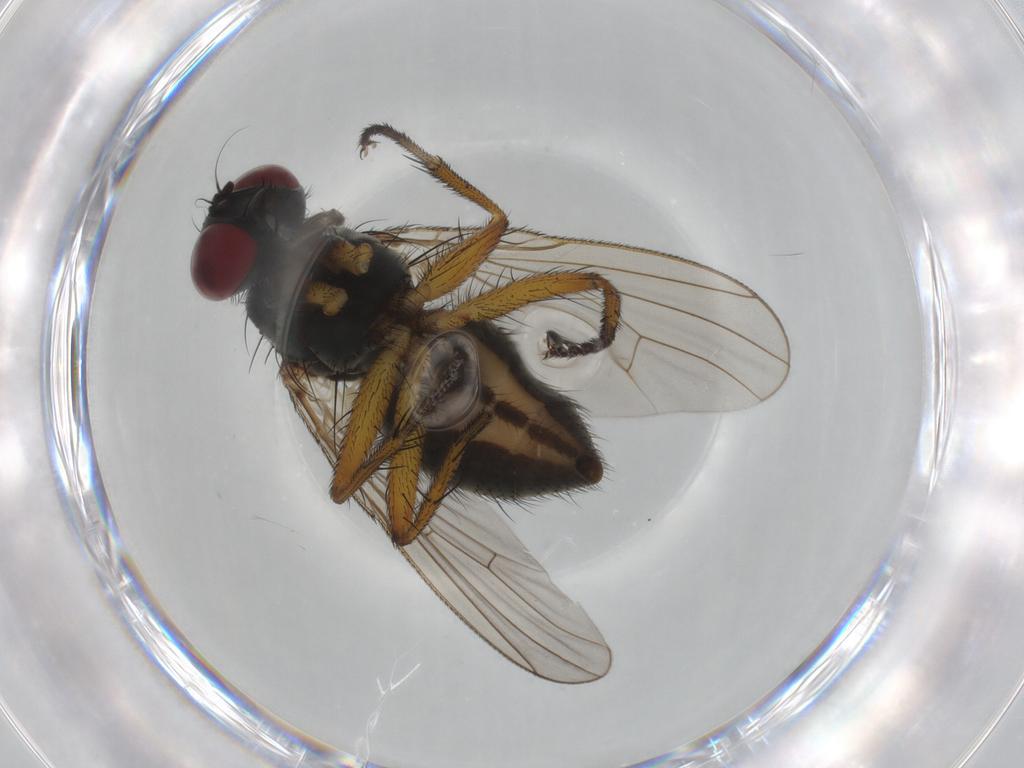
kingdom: Animalia
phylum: Arthropoda
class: Insecta
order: Diptera
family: Muscidae
